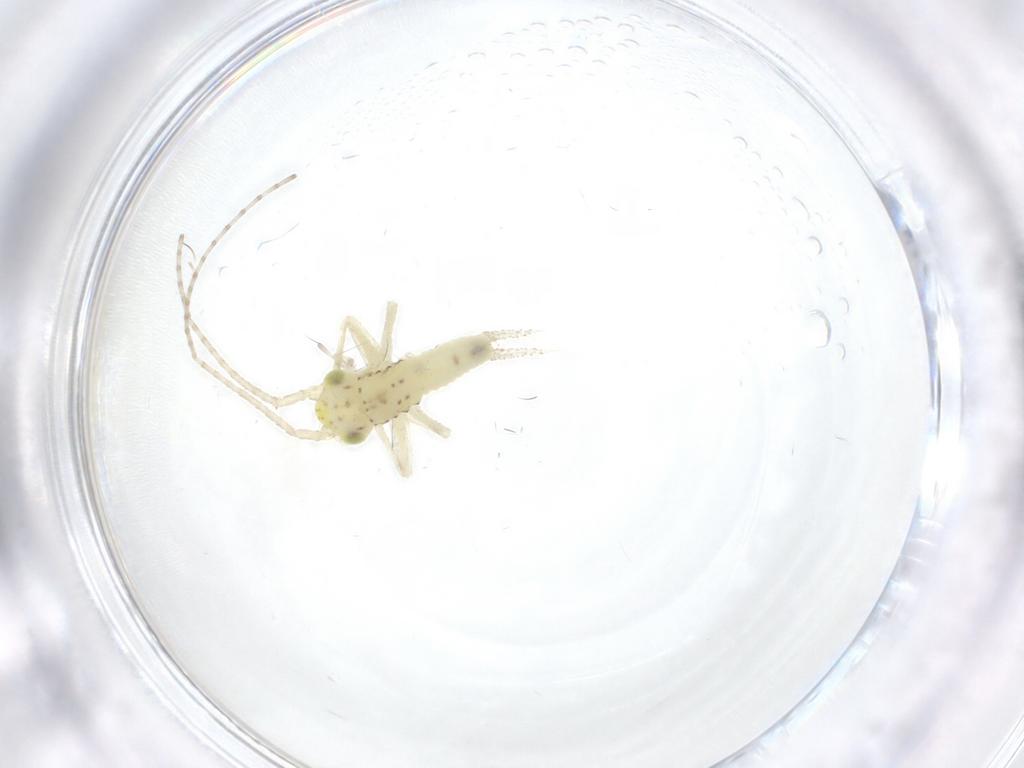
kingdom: Animalia
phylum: Arthropoda
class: Insecta
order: Orthoptera
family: Trigonidiidae
